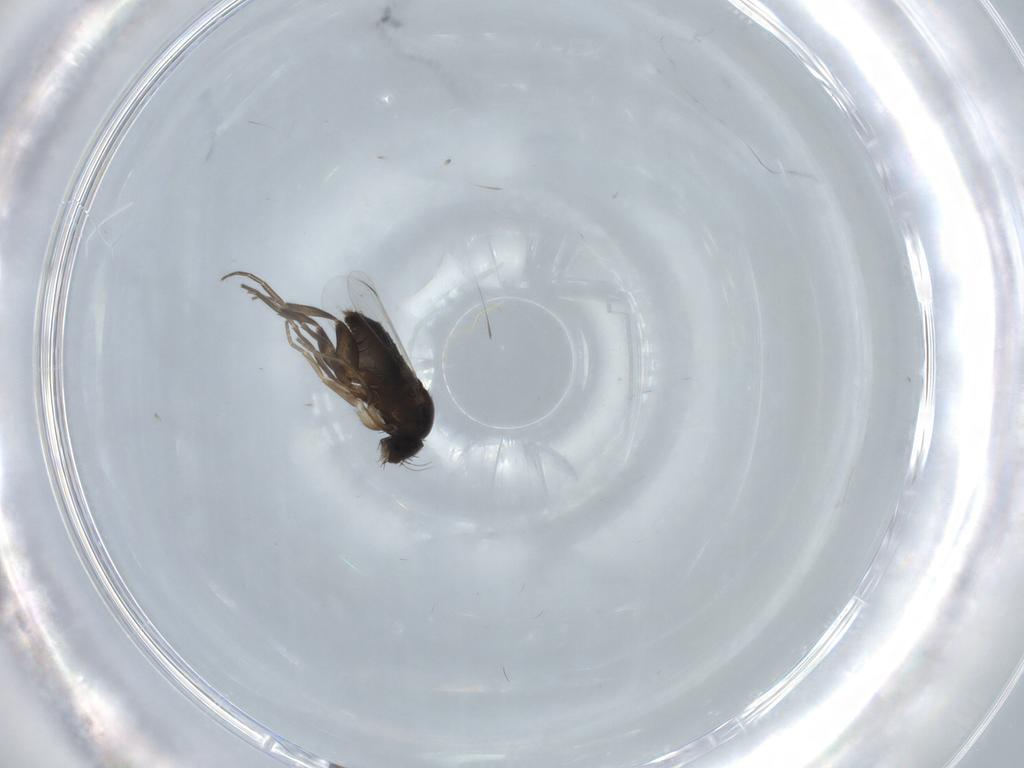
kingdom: Animalia
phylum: Arthropoda
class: Insecta
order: Diptera
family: Phoridae
